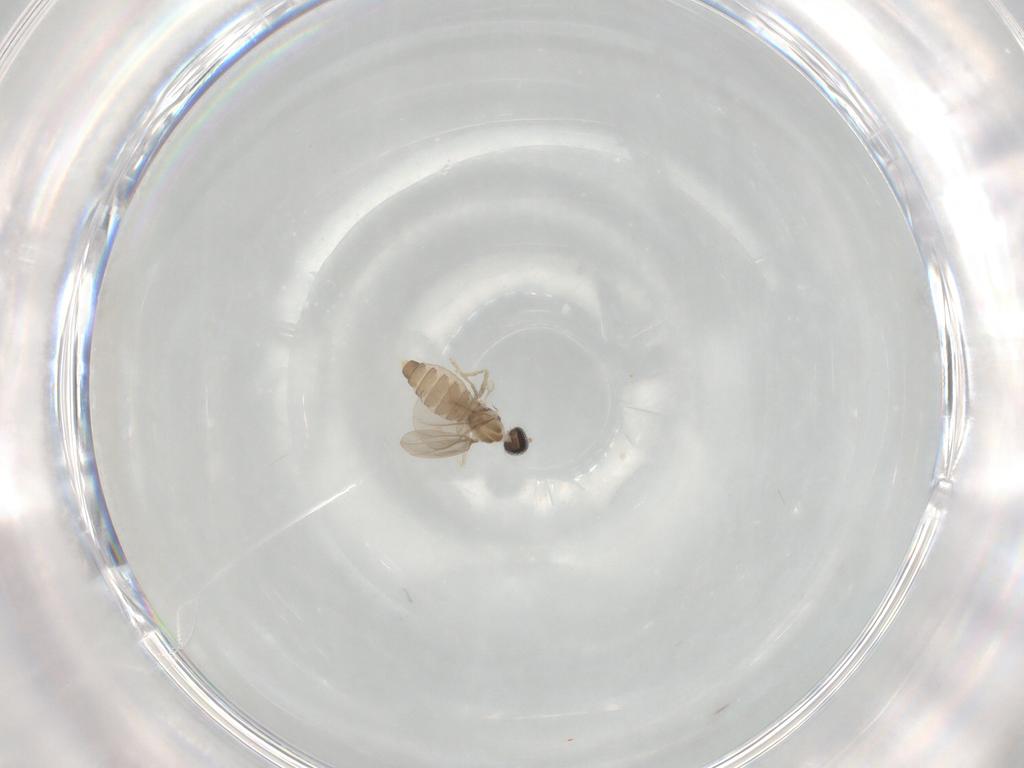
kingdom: Animalia
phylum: Arthropoda
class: Insecta
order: Diptera
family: Cecidomyiidae
